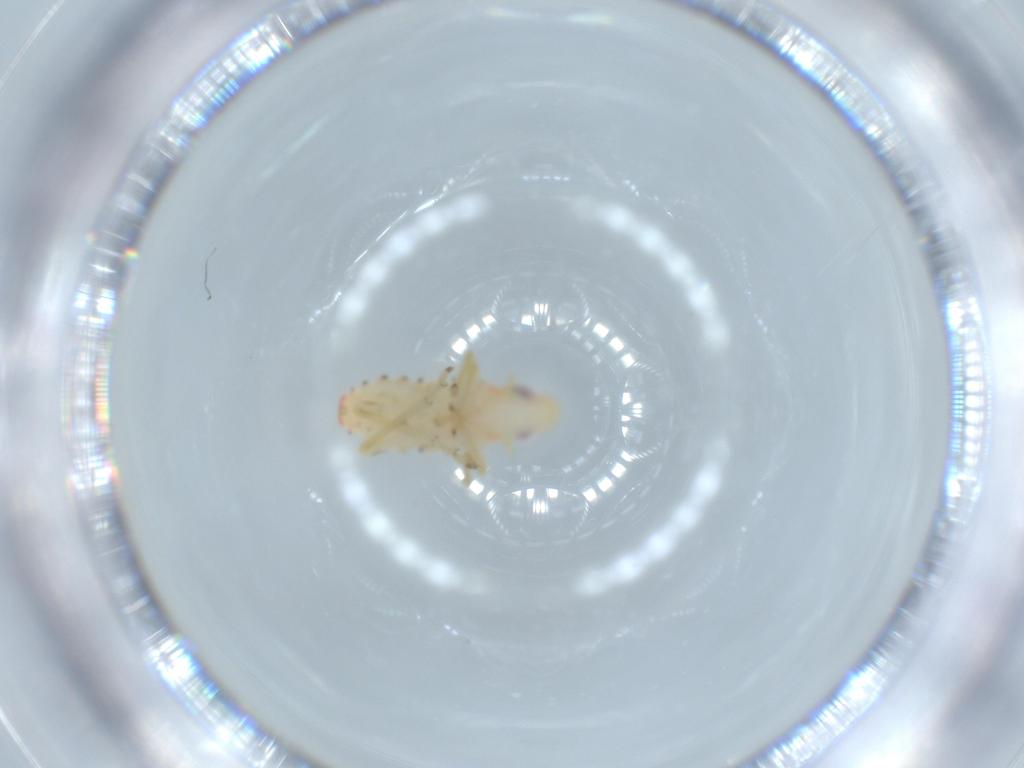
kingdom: Animalia
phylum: Arthropoda
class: Insecta
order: Hemiptera
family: Tropiduchidae
